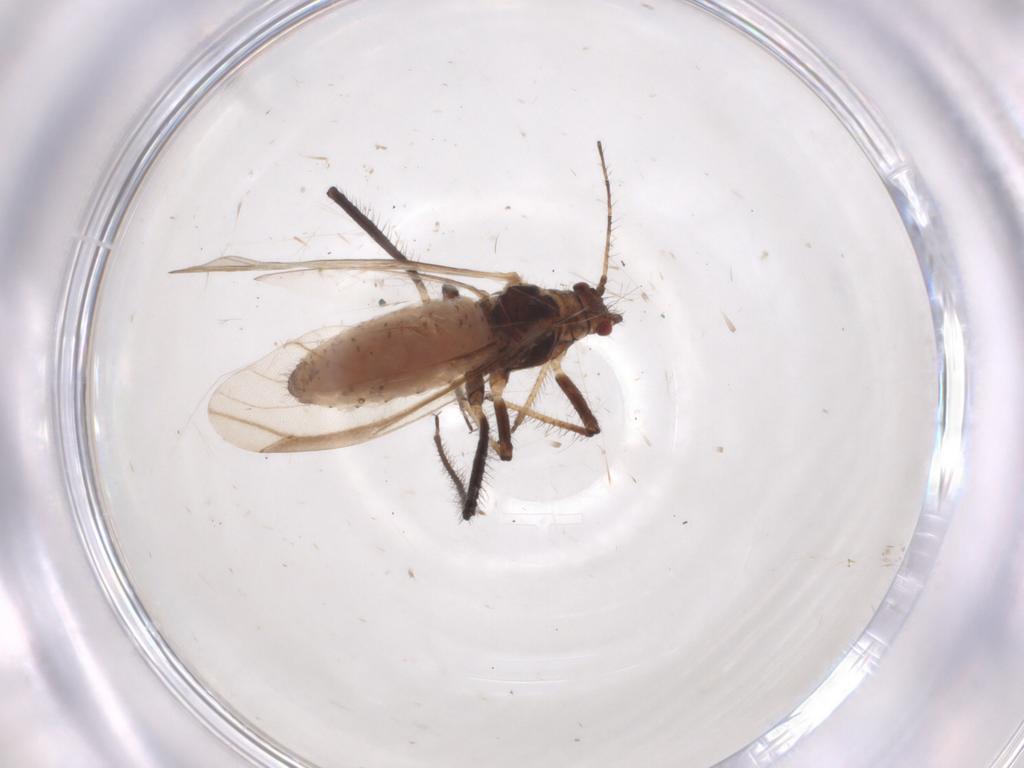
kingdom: Animalia
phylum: Arthropoda
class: Insecta
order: Hemiptera
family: Aphididae
